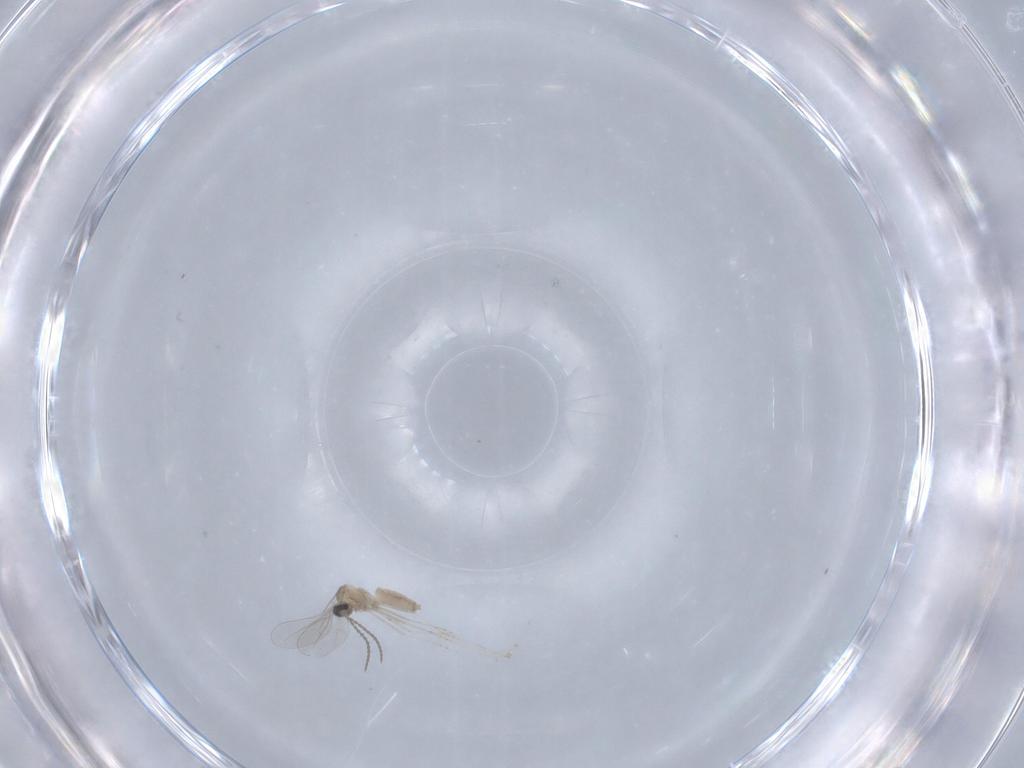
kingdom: Animalia
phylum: Arthropoda
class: Insecta
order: Diptera
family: Cecidomyiidae
